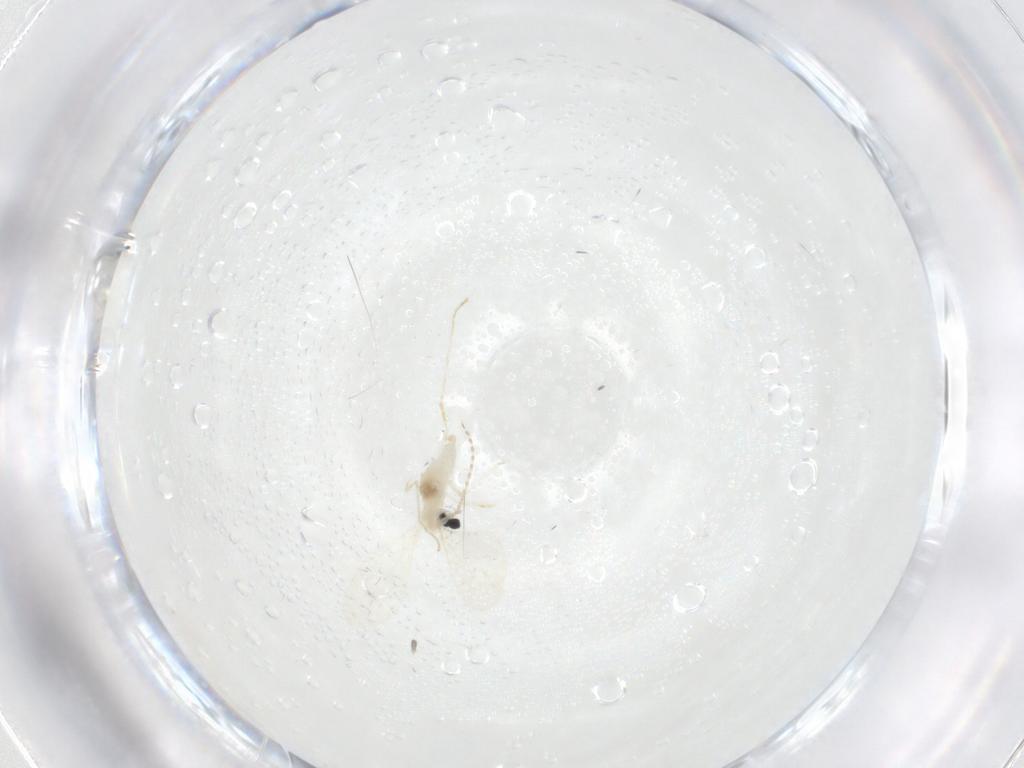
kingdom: Animalia
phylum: Arthropoda
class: Insecta
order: Diptera
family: Cecidomyiidae
